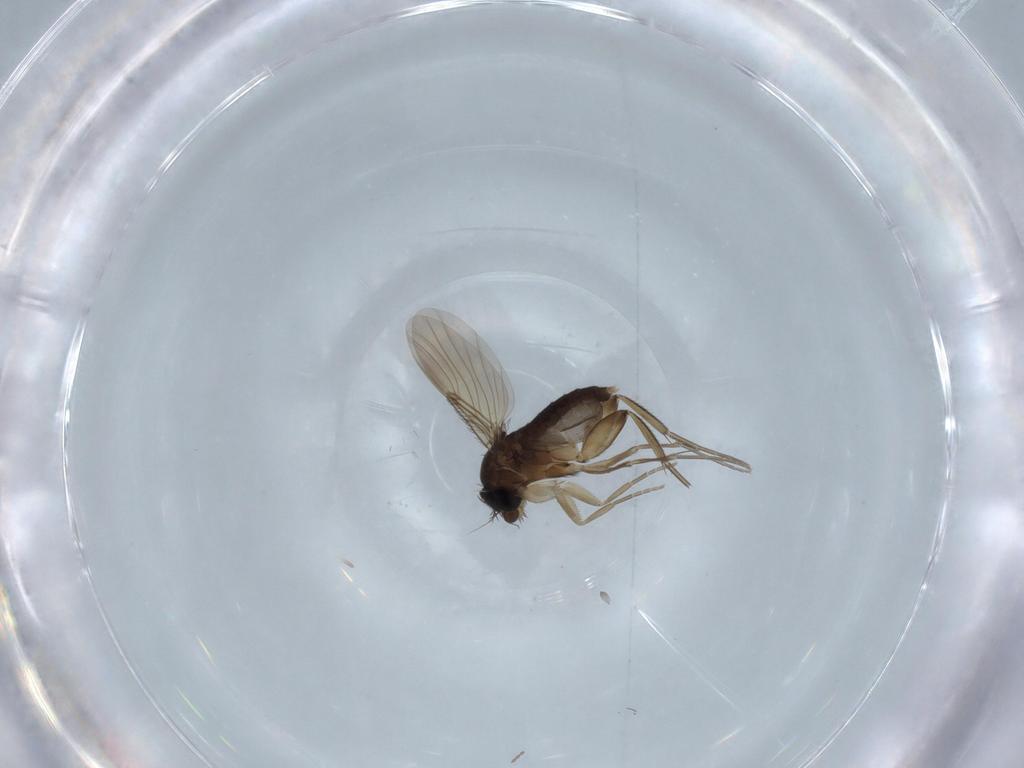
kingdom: Animalia
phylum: Arthropoda
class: Insecta
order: Diptera
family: Phoridae
